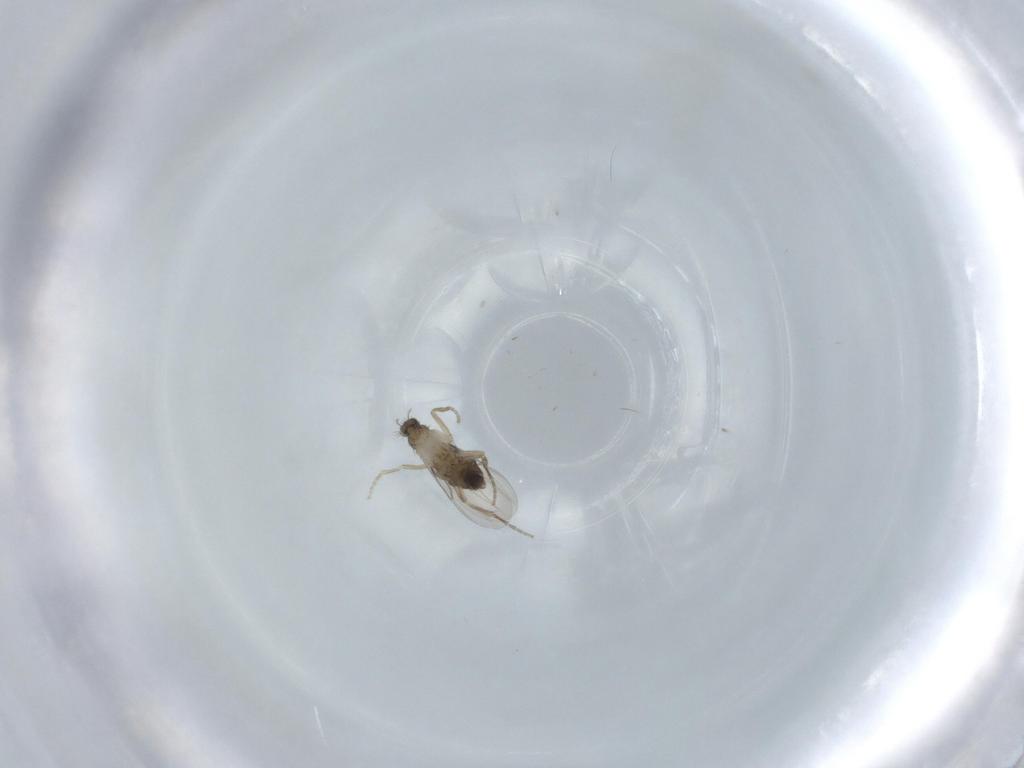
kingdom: Animalia
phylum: Arthropoda
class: Insecta
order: Diptera
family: Phoridae
